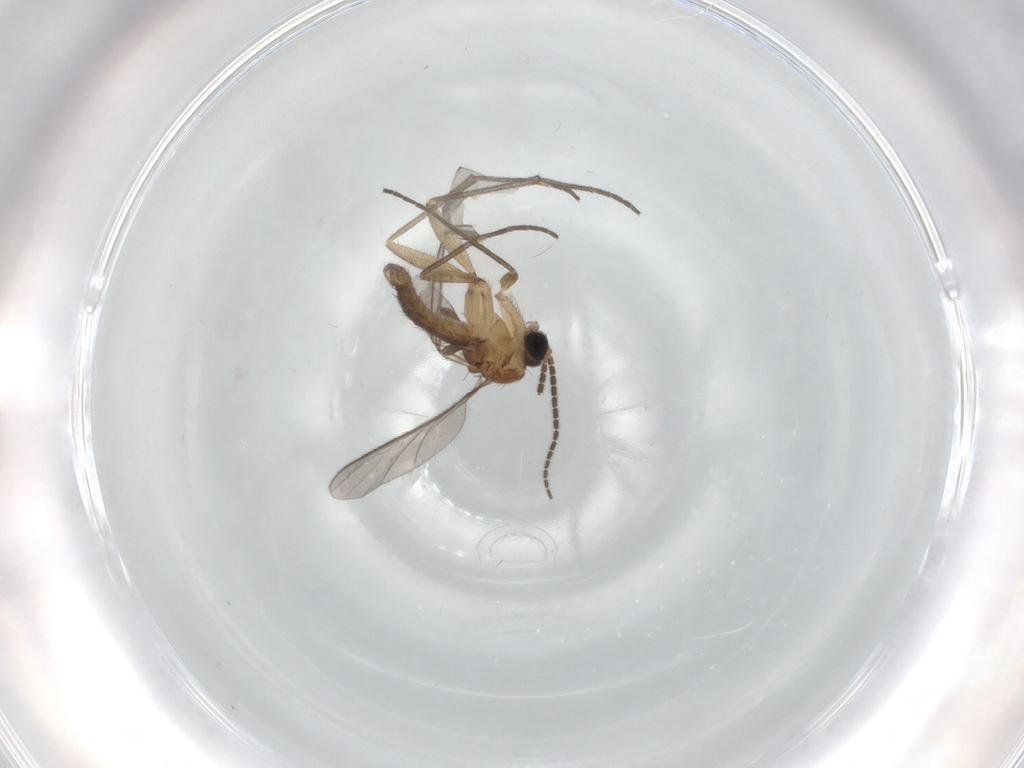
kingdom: Animalia
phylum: Arthropoda
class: Insecta
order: Diptera
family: Sciaridae
